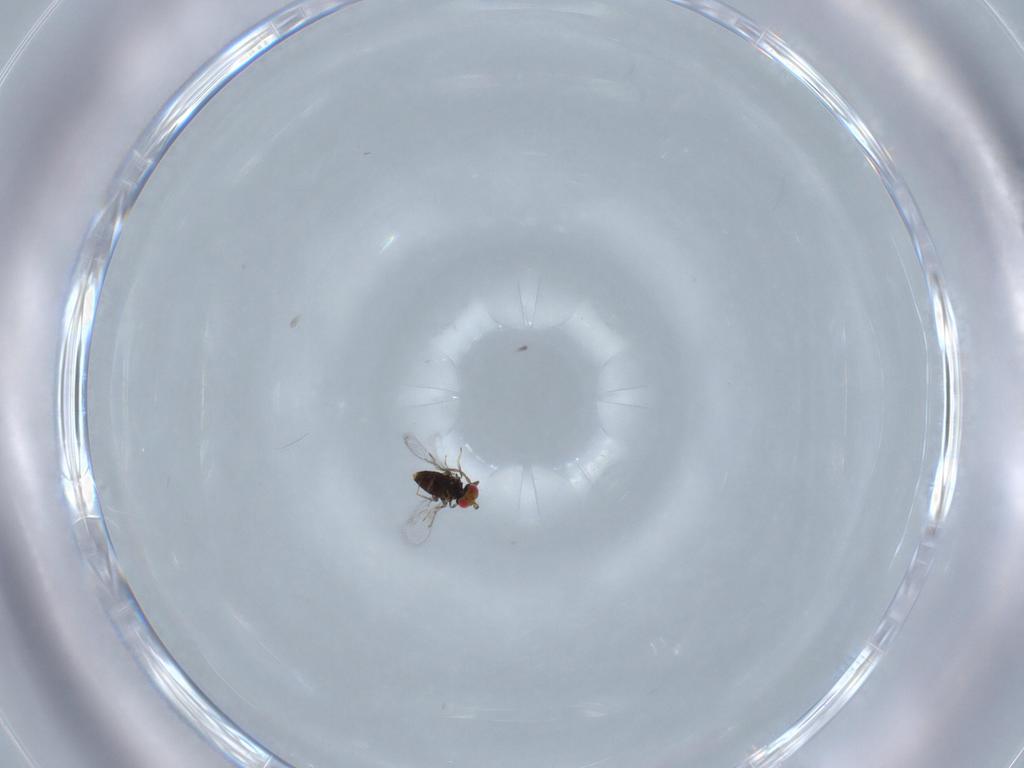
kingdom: Animalia
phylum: Arthropoda
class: Insecta
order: Hymenoptera
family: Azotidae
